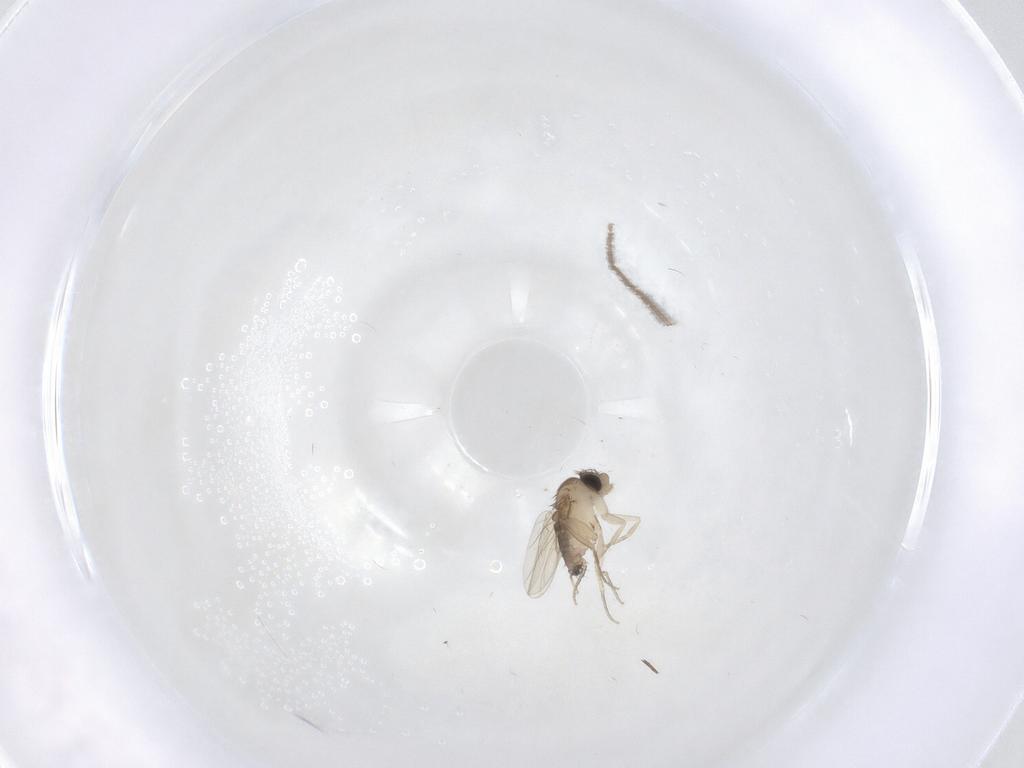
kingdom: Animalia
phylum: Arthropoda
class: Insecta
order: Diptera
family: Phoridae
